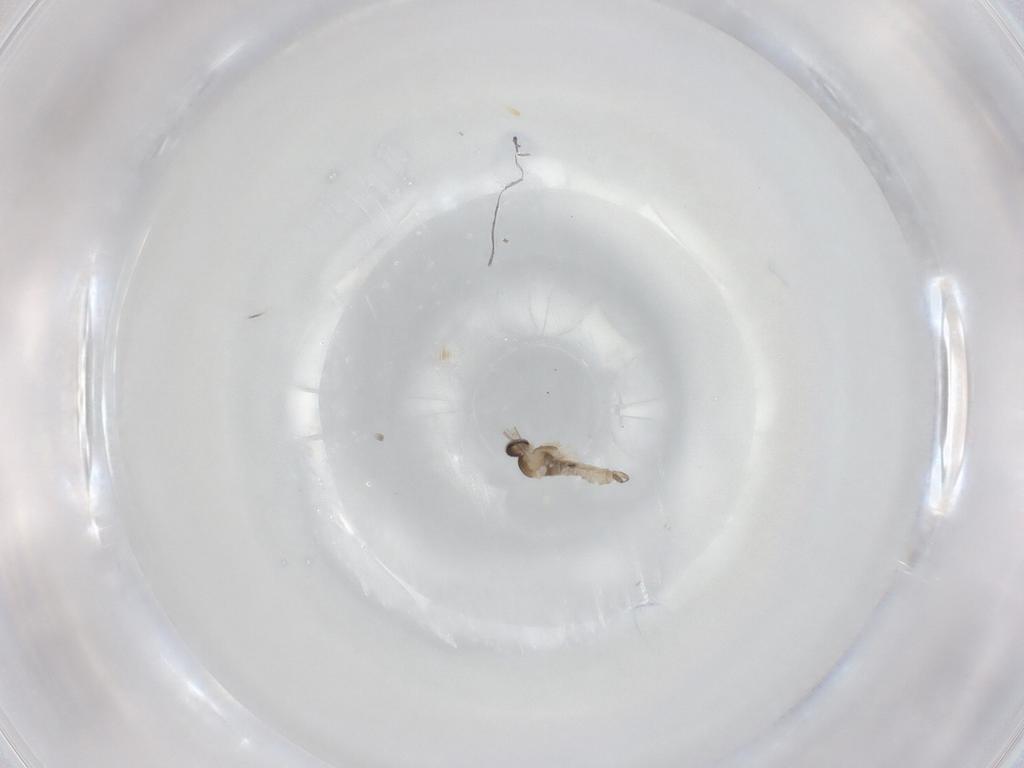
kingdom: Animalia
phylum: Arthropoda
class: Insecta
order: Diptera
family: Cecidomyiidae
